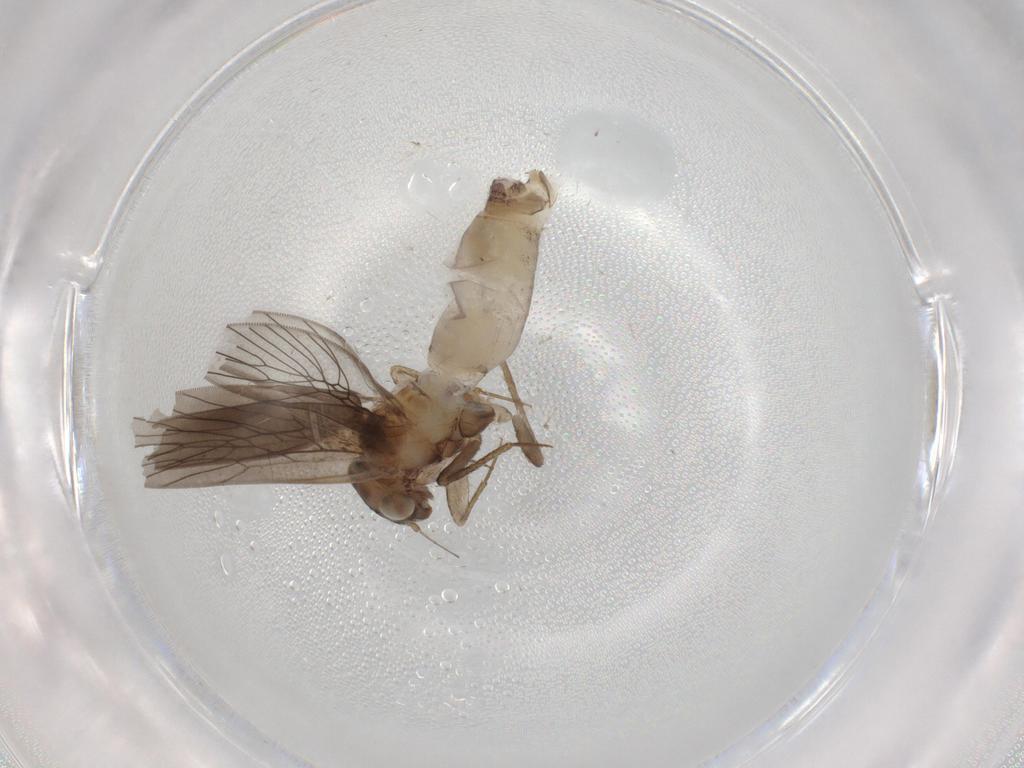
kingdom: Animalia
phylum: Arthropoda
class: Insecta
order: Psocodea
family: Lepidopsocidae
